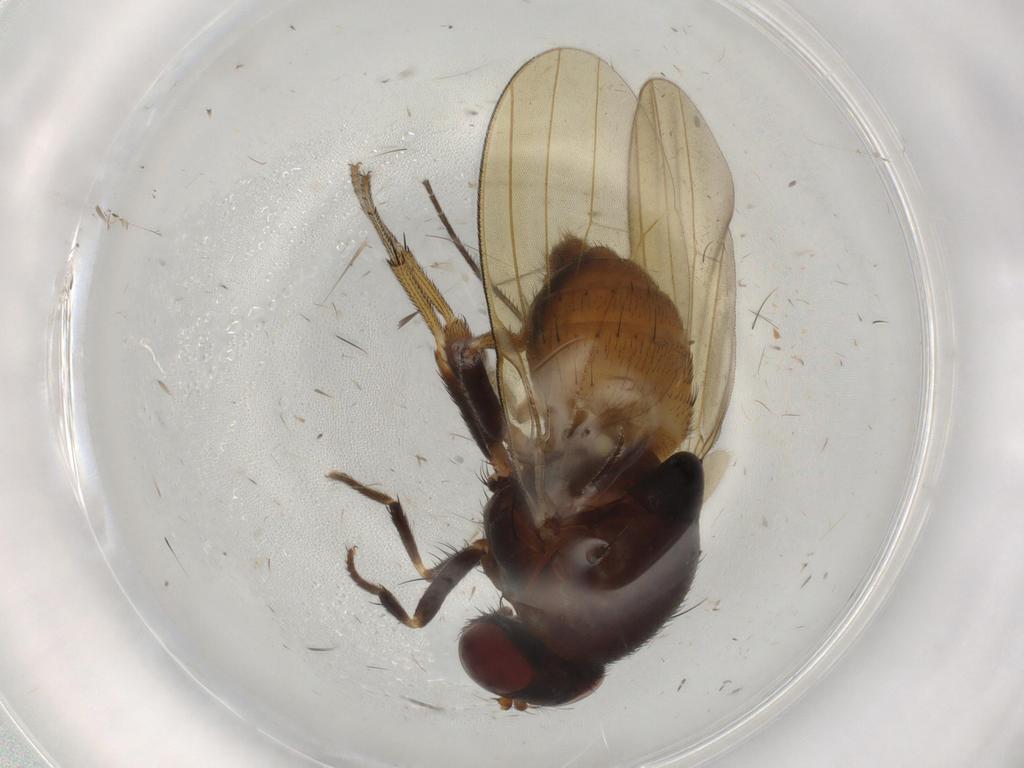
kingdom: Animalia
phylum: Arthropoda
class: Insecta
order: Diptera
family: Lauxaniidae
